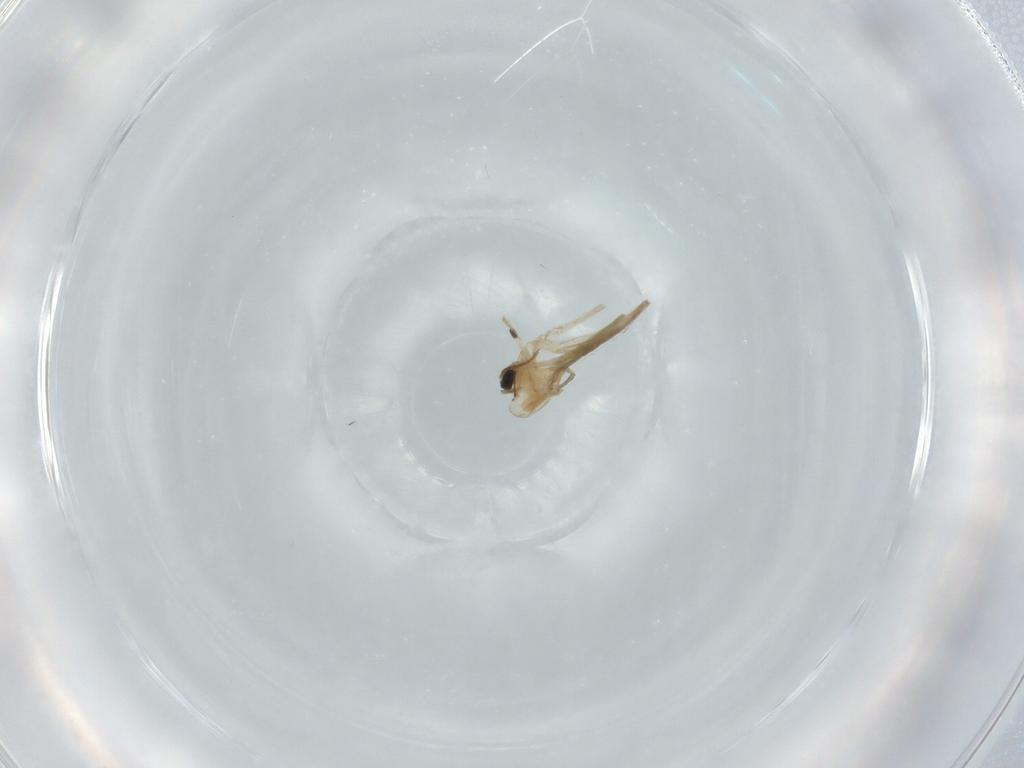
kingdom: Animalia
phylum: Arthropoda
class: Insecta
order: Diptera
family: Chironomidae
